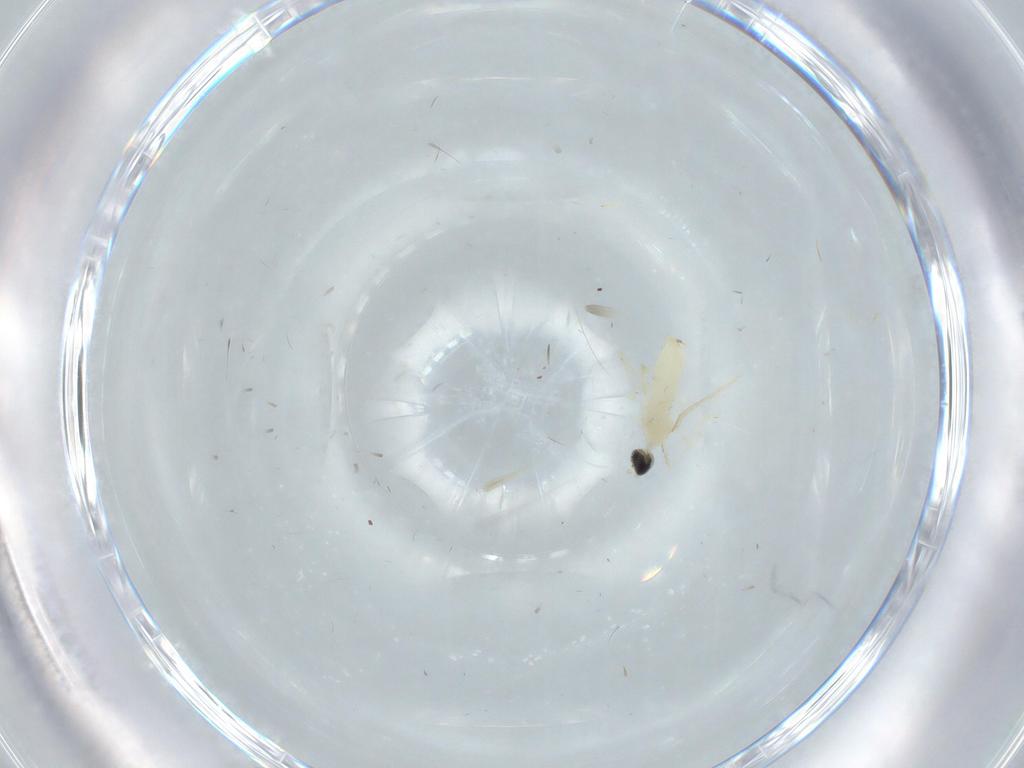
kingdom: Animalia
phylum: Arthropoda
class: Insecta
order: Diptera
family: Cecidomyiidae
